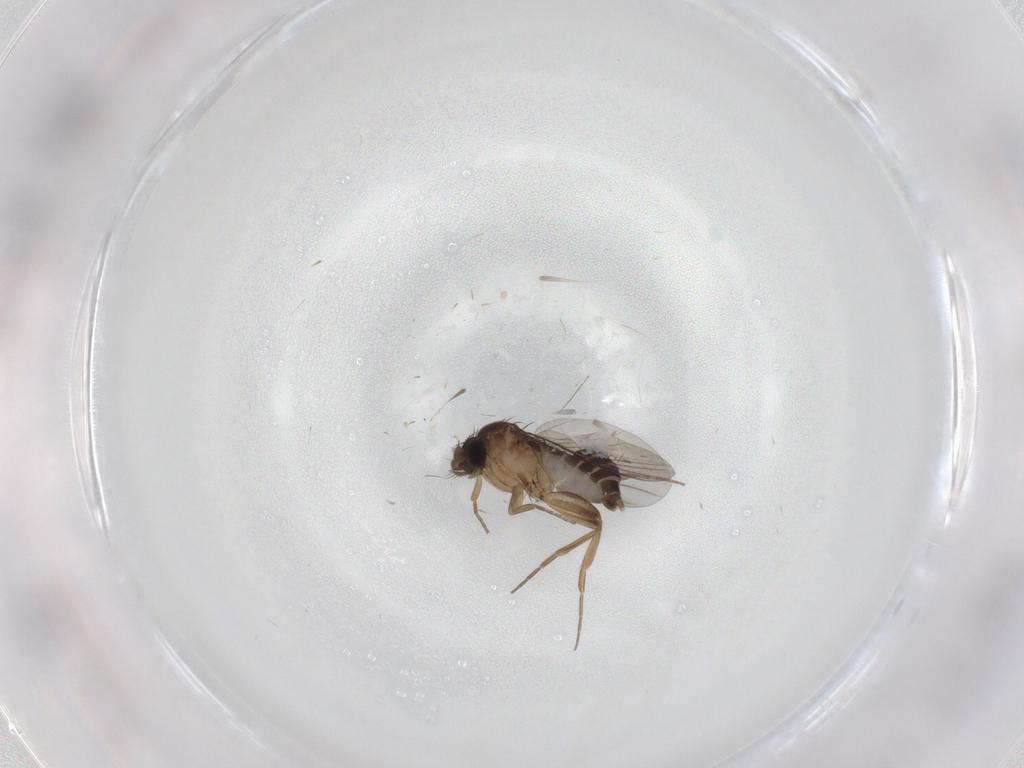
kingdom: Animalia
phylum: Arthropoda
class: Insecta
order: Diptera
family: Phoridae
